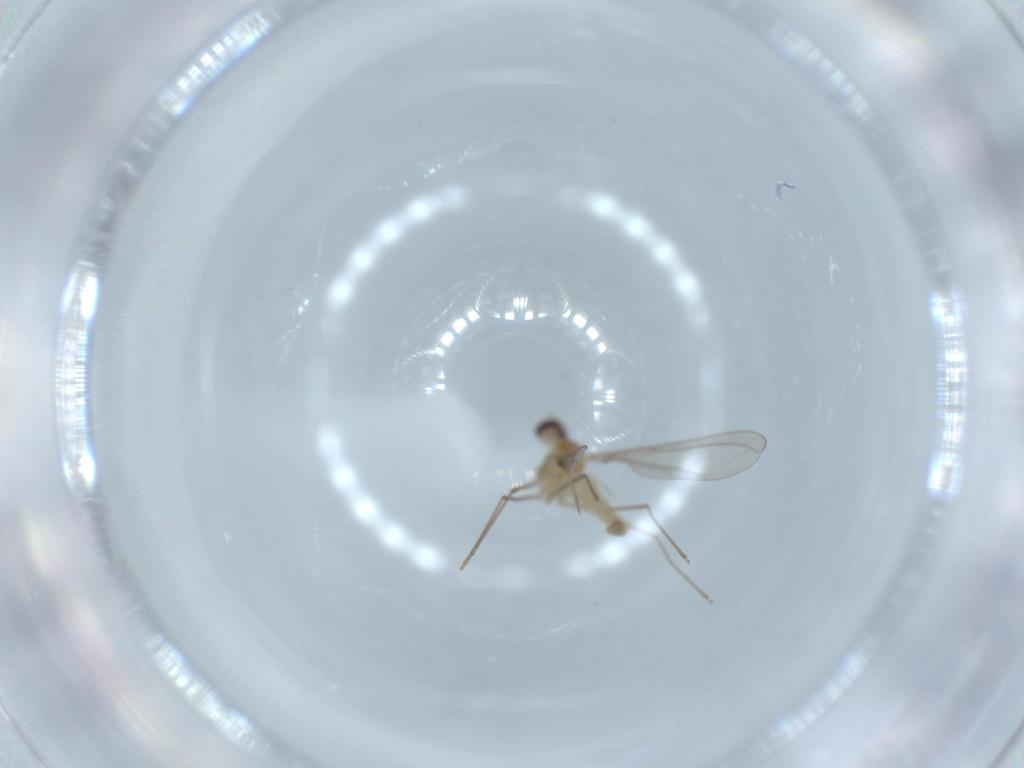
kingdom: Animalia
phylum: Arthropoda
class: Insecta
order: Diptera
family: Cecidomyiidae
